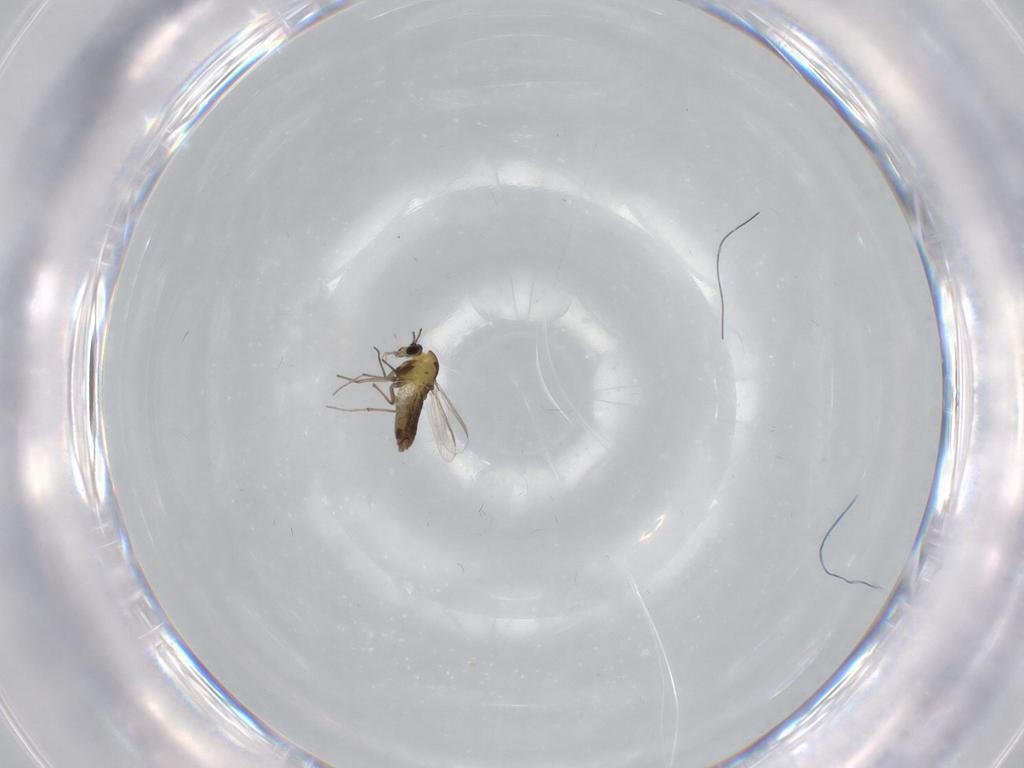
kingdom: Animalia
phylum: Arthropoda
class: Insecta
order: Diptera
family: Chironomidae
